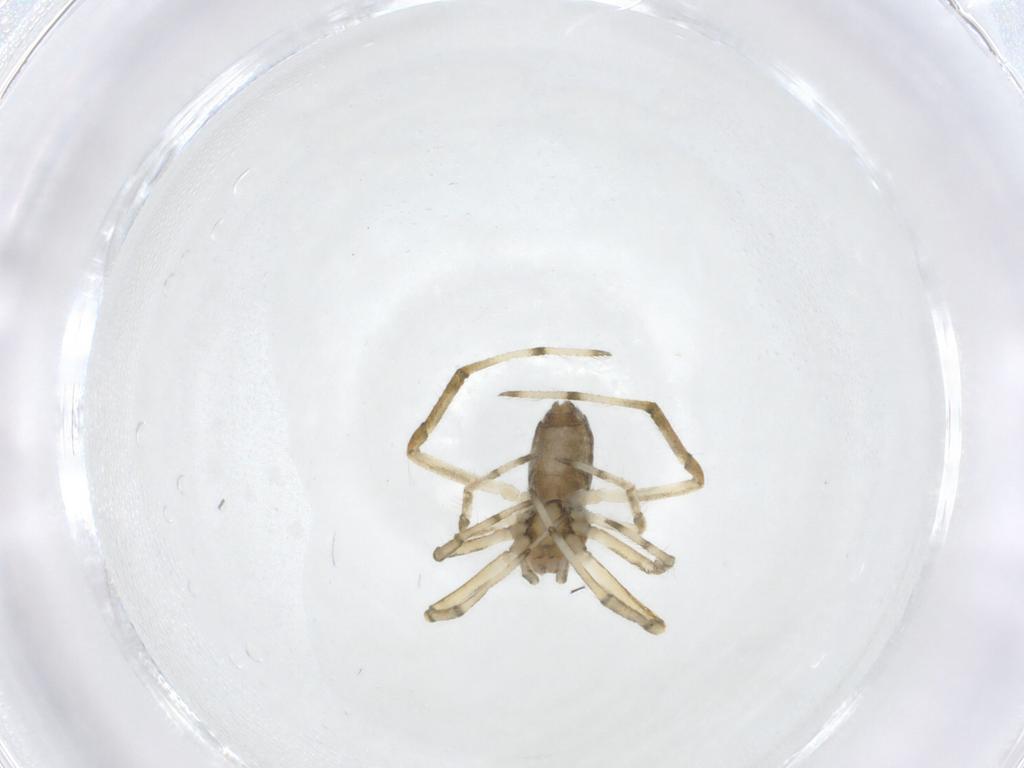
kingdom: Animalia
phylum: Arthropoda
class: Arachnida
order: Araneae
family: Theridiidae
